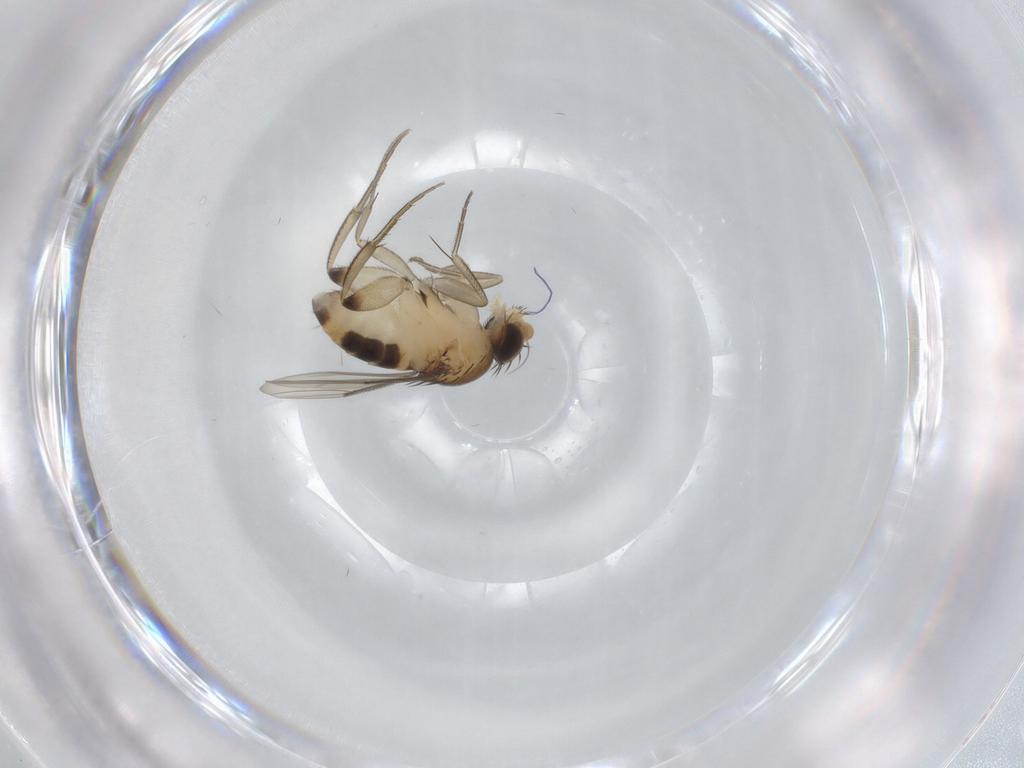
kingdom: Animalia
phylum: Arthropoda
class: Insecta
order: Diptera
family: Phoridae
